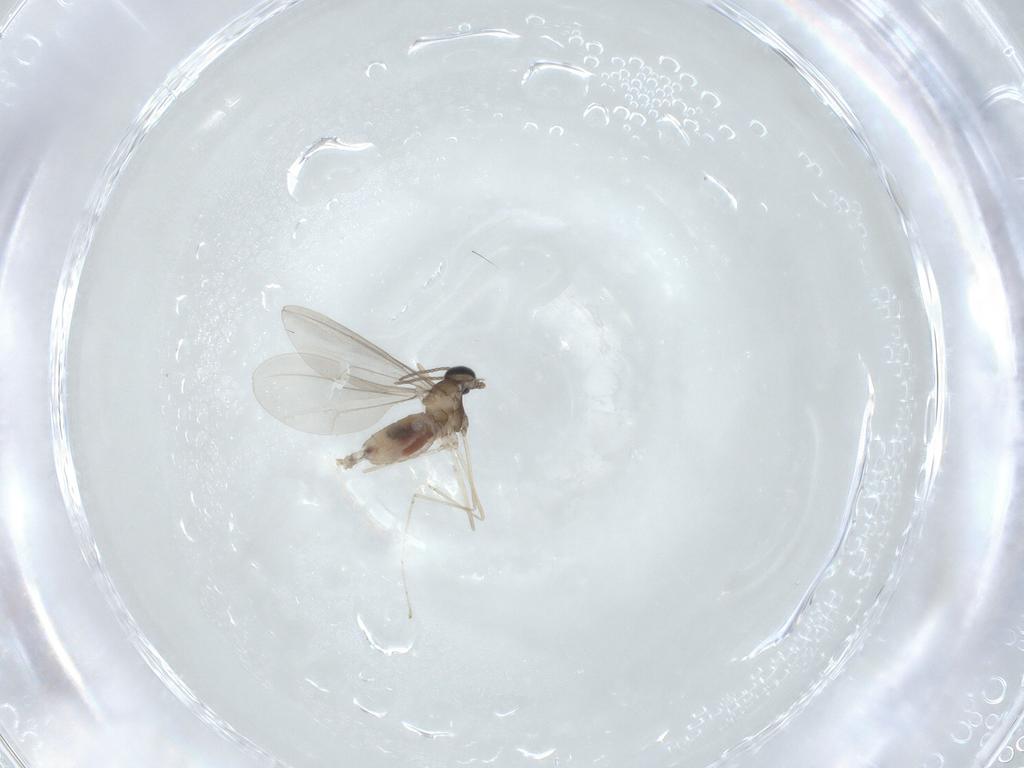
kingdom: Animalia
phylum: Arthropoda
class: Insecta
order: Diptera
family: Cecidomyiidae
